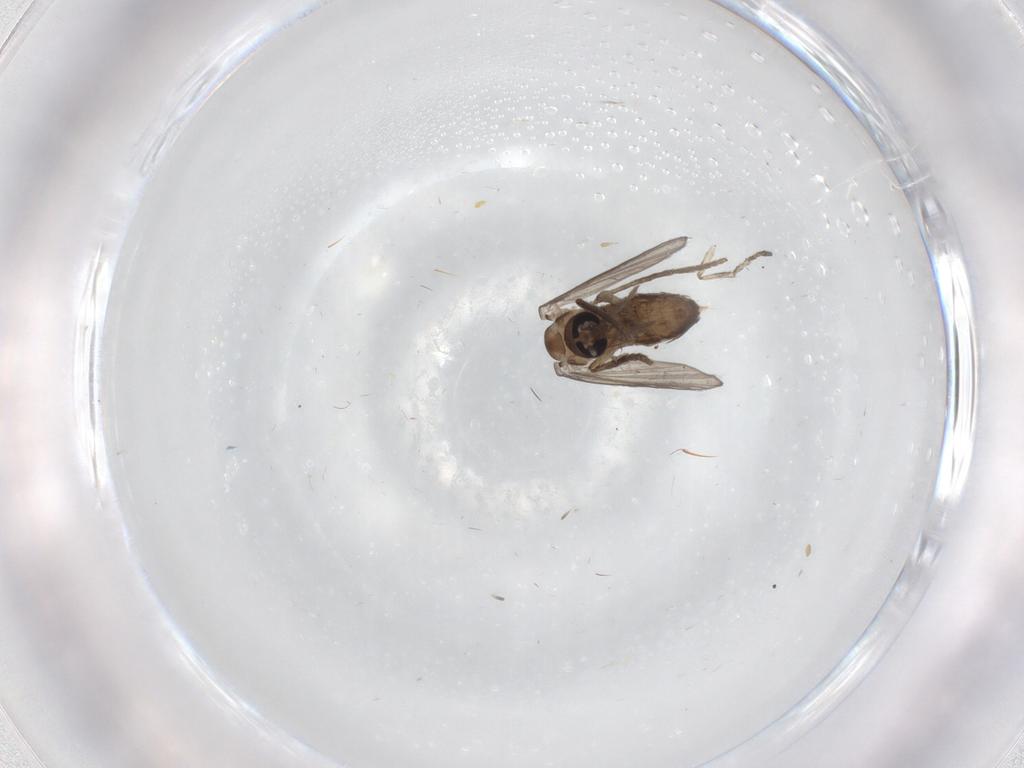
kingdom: Animalia
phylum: Arthropoda
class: Insecta
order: Diptera
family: Psychodidae
